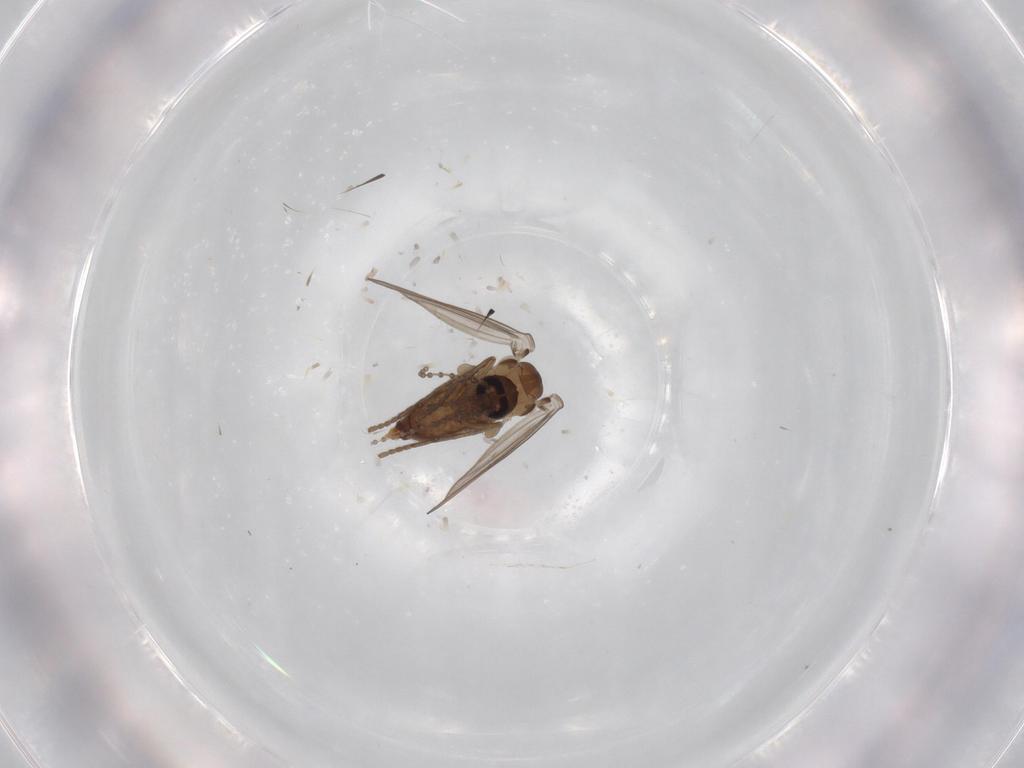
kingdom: Animalia
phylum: Arthropoda
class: Insecta
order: Diptera
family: Psychodidae
